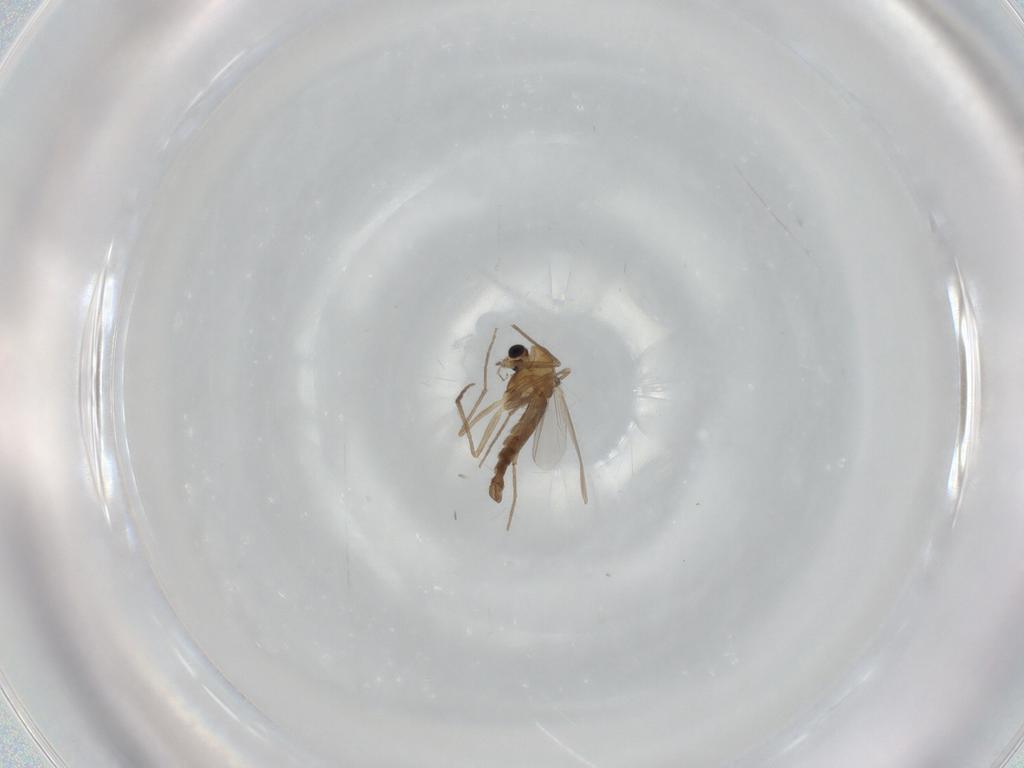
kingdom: Animalia
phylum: Arthropoda
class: Insecta
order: Diptera
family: Chironomidae
